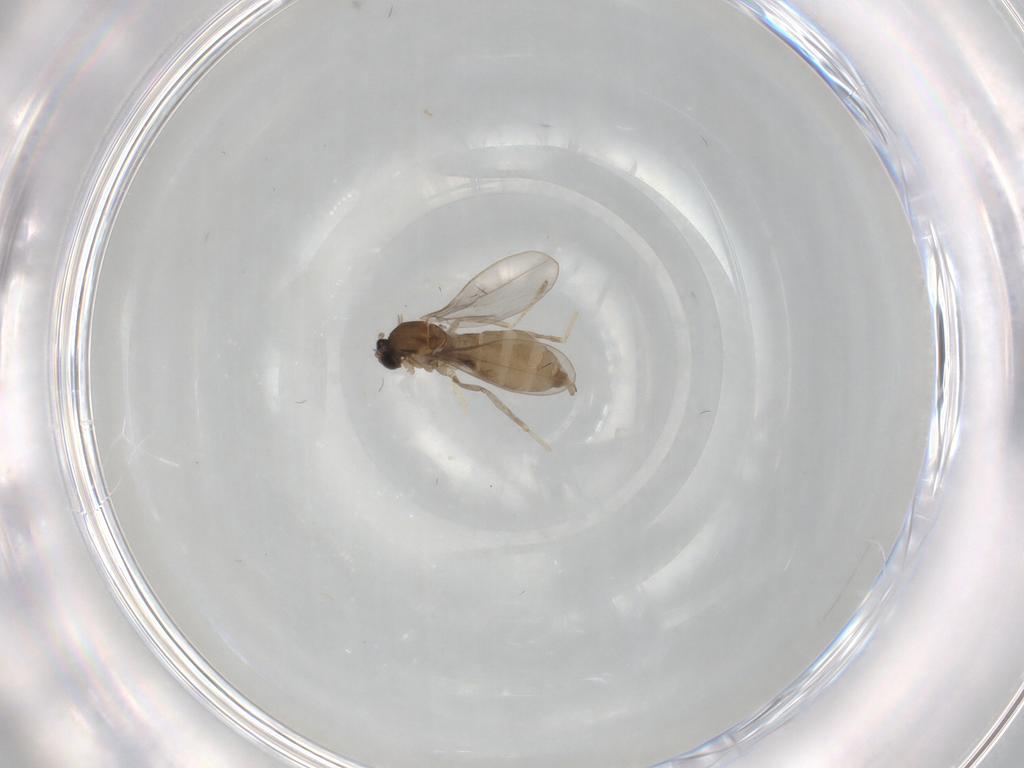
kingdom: Animalia
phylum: Arthropoda
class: Insecta
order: Diptera
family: Cecidomyiidae
